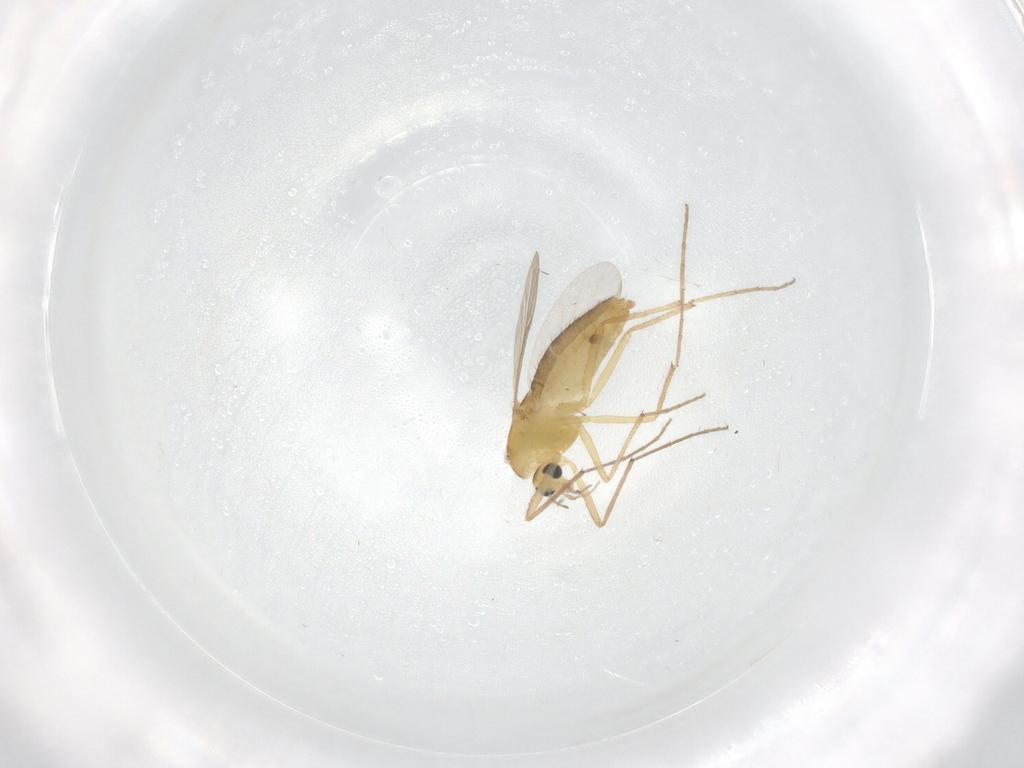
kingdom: Animalia
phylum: Arthropoda
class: Insecta
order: Diptera
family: Chironomidae
